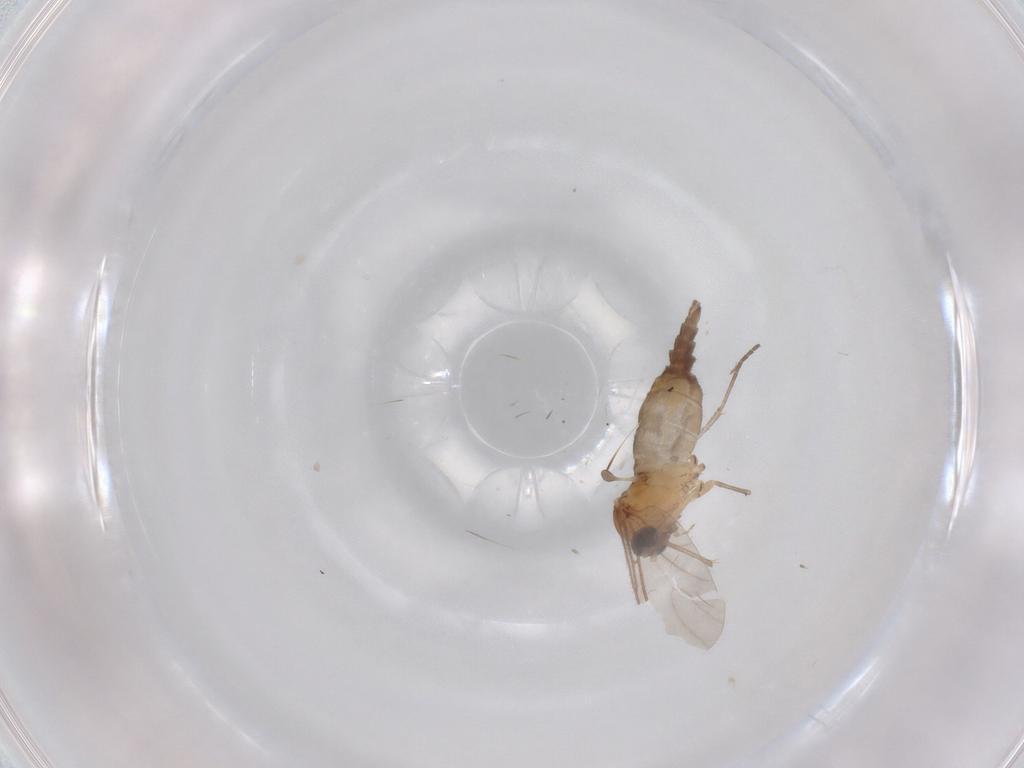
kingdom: Animalia
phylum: Arthropoda
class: Insecta
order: Diptera
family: Sciaridae
